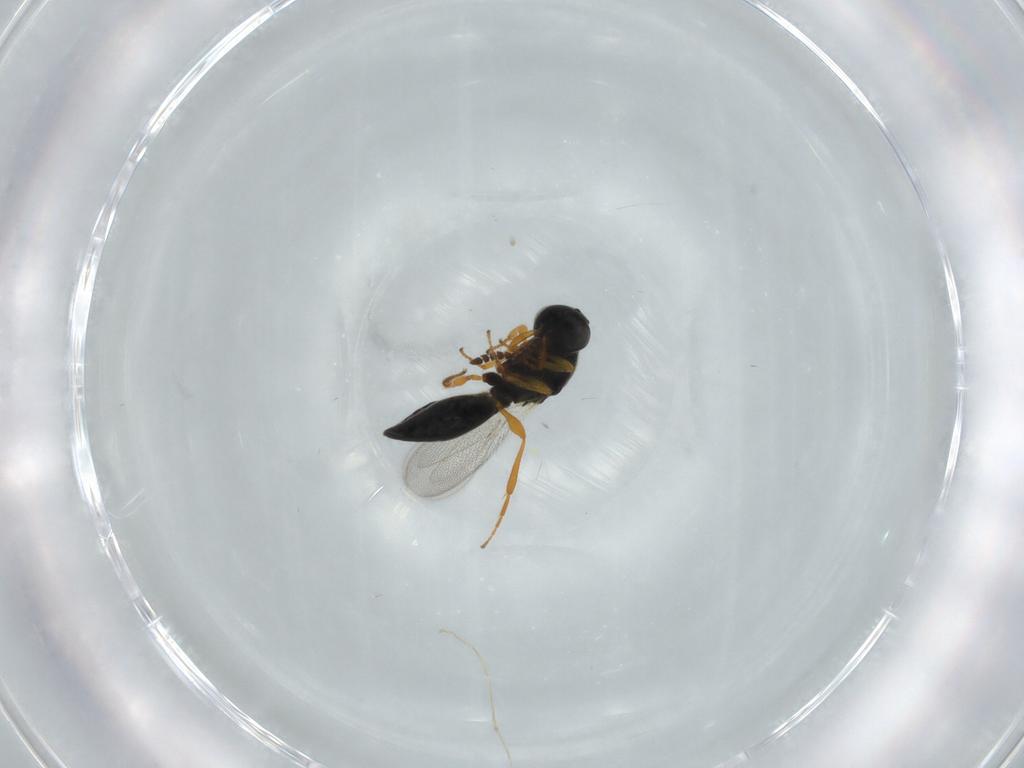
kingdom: Animalia
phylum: Arthropoda
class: Insecta
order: Hymenoptera
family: Platygastridae
